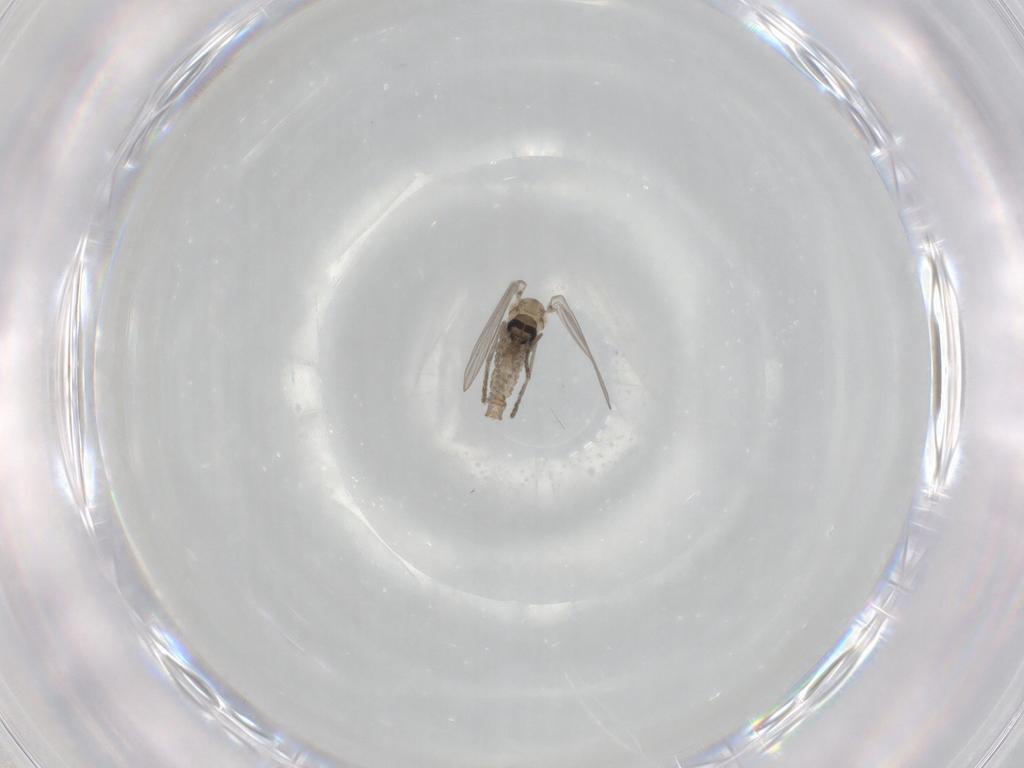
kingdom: Animalia
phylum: Arthropoda
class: Insecta
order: Diptera
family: Psychodidae
